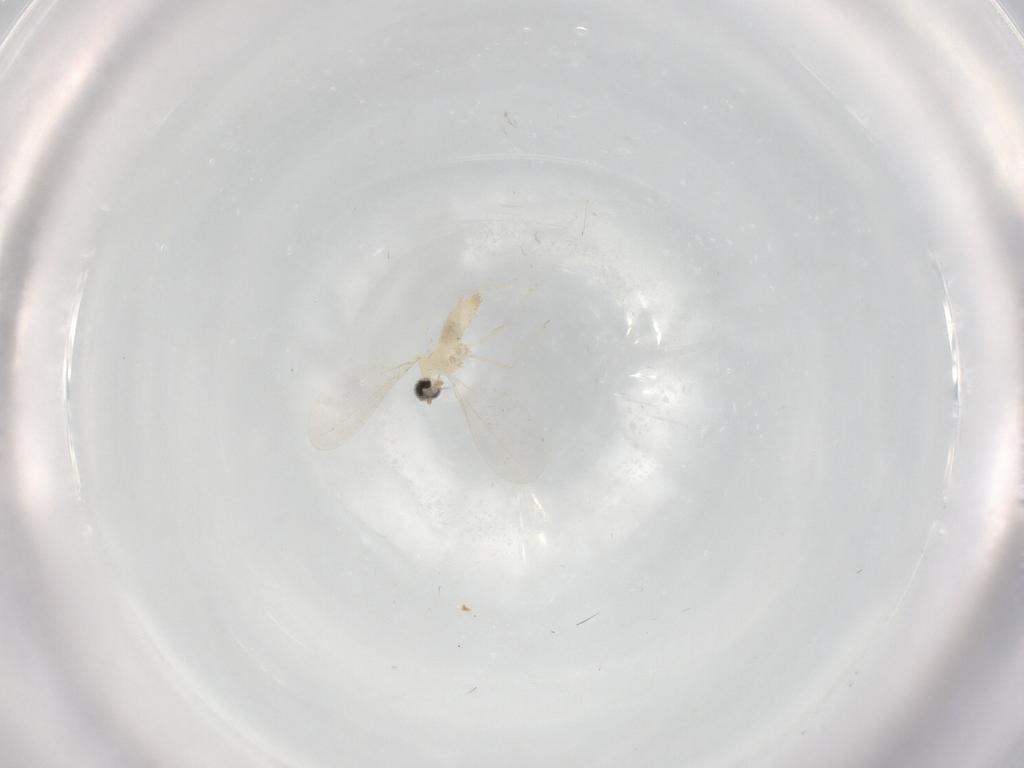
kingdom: Animalia
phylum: Arthropoda
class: Insecta
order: Diptera
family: Cecidomyiidae
